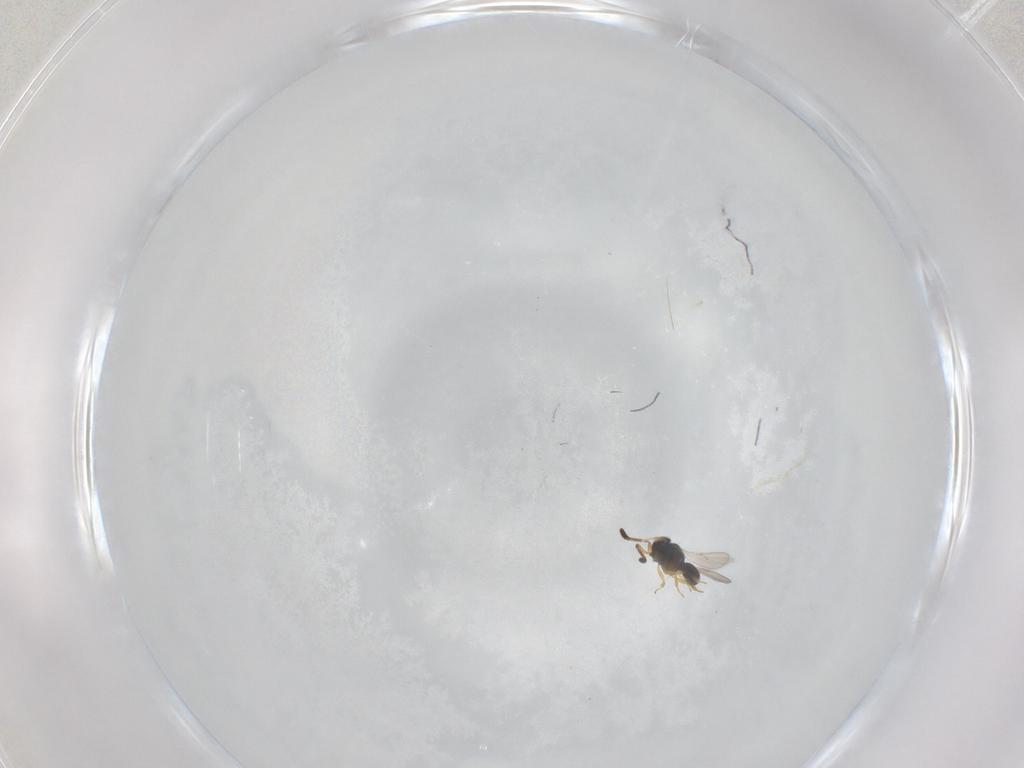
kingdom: Animalia
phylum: Arthropoda
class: Insecta
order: Hymenoptera
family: Scelionidae
